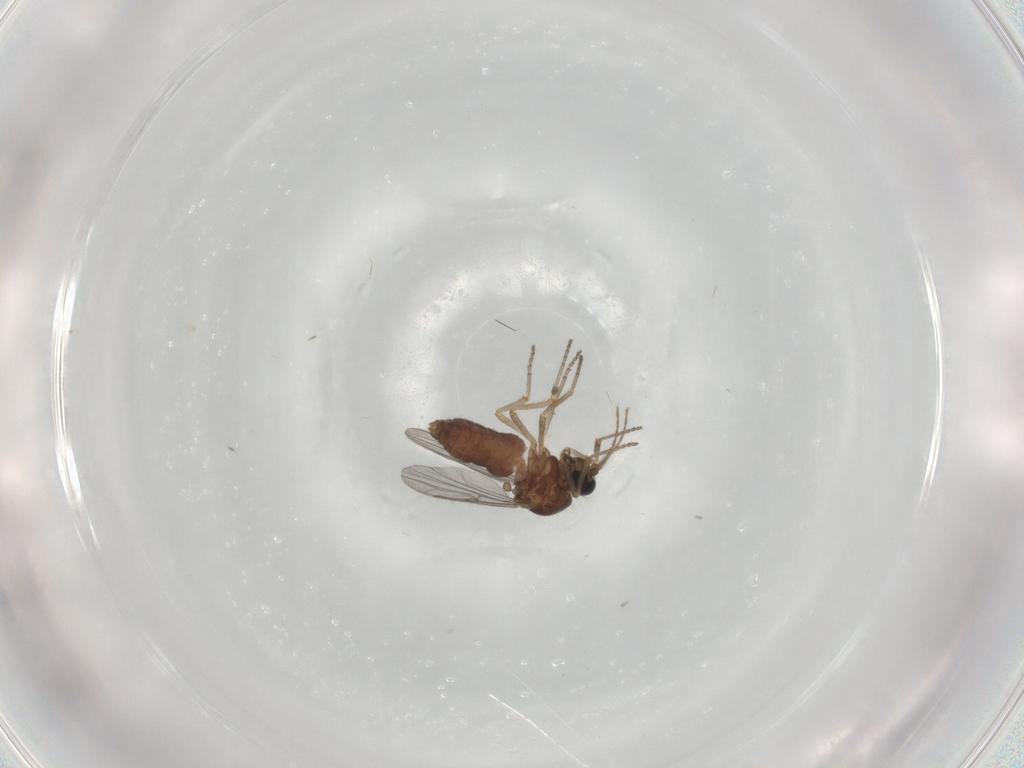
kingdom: Animalia
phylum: Arthropoda
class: Insecta
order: Diptera
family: Ceratopogonidae
